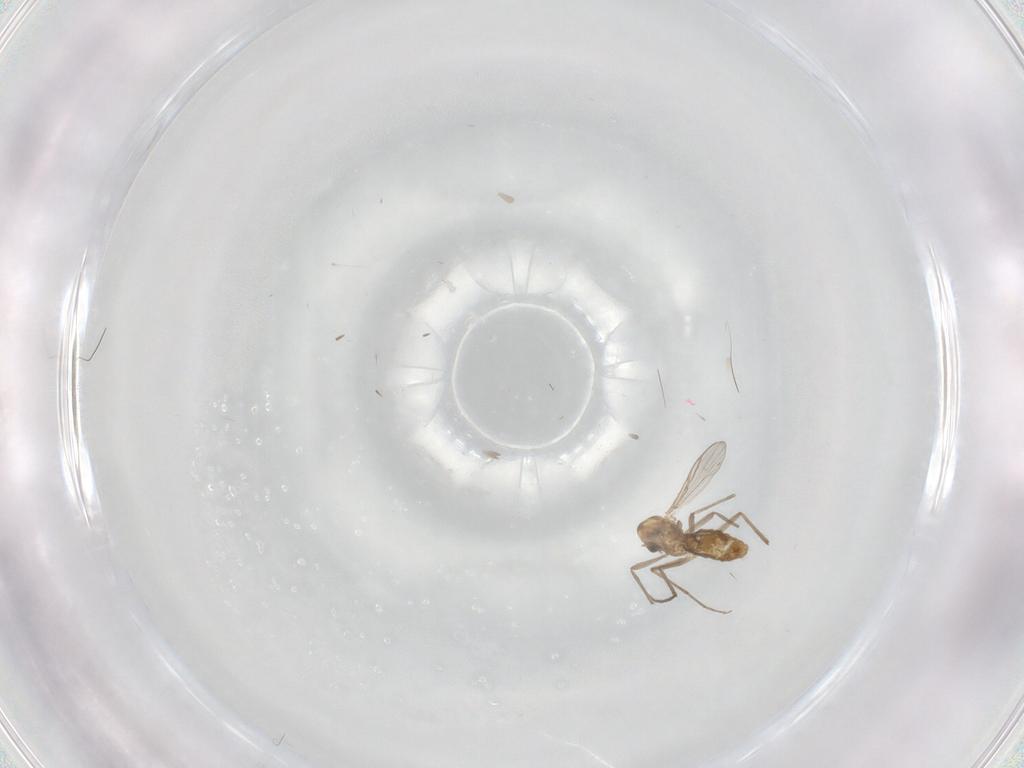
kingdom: Animalia
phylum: Arthropoda
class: Insecta
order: Diptera
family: Chironomidae
